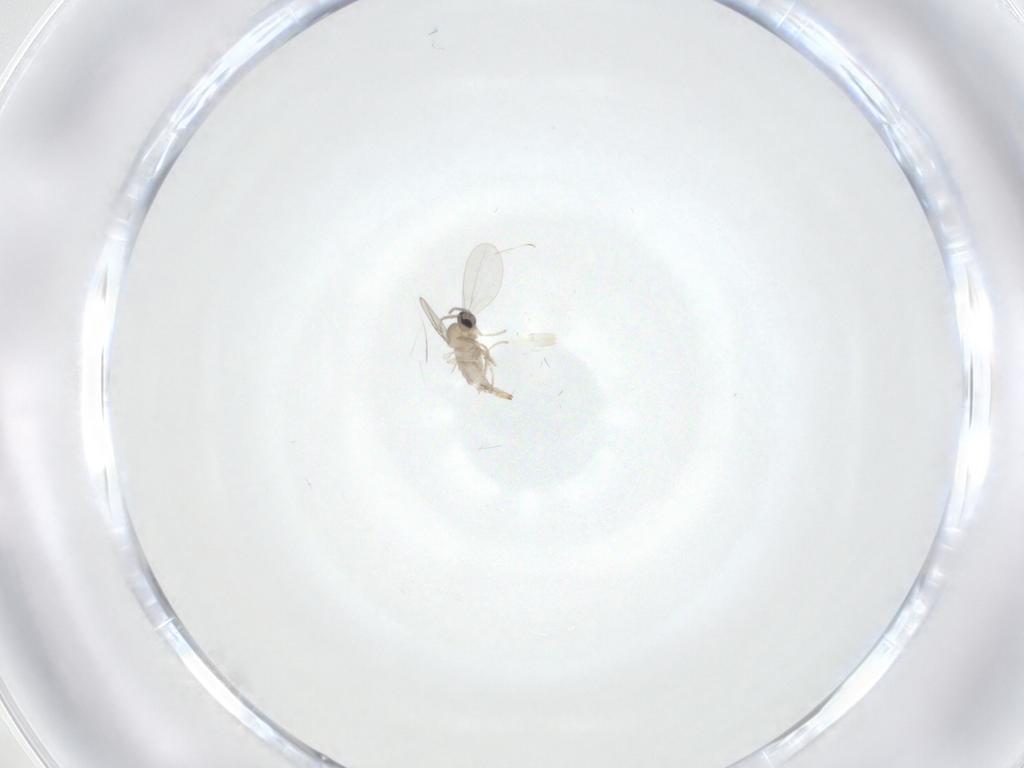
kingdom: Animalia
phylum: Arthropoda
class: Insecta
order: Diptera
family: Cecidomyiidae
